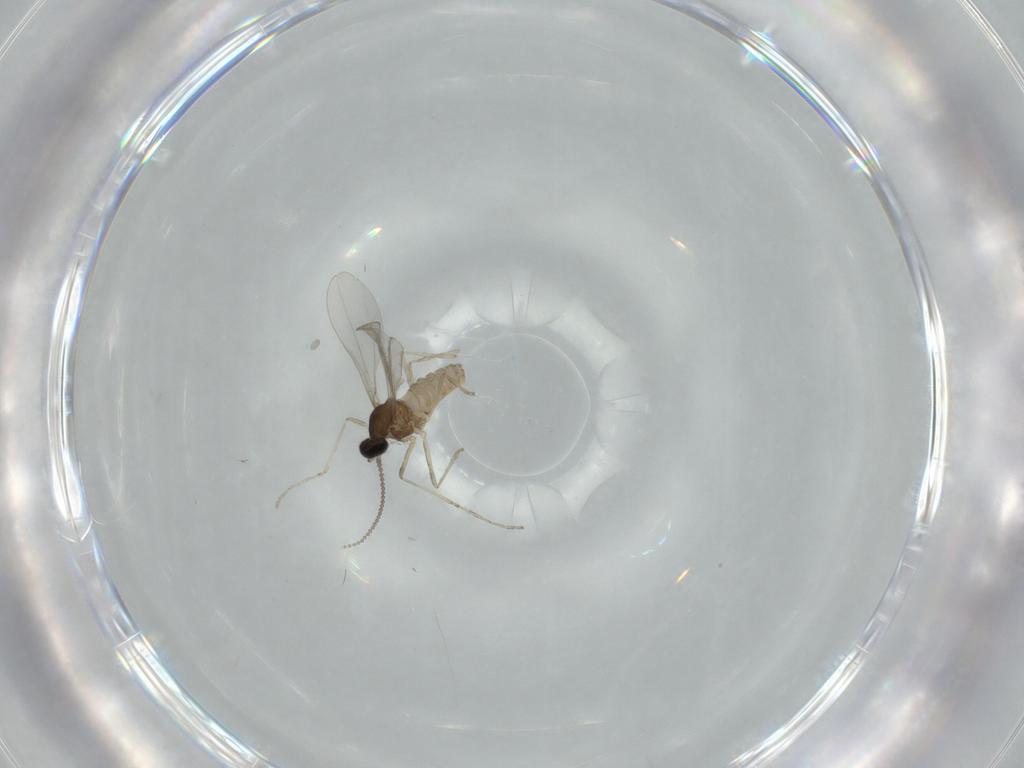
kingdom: Animalia
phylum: Arthropoda
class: Insecta
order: Diptera
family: Cecidomyiidae
